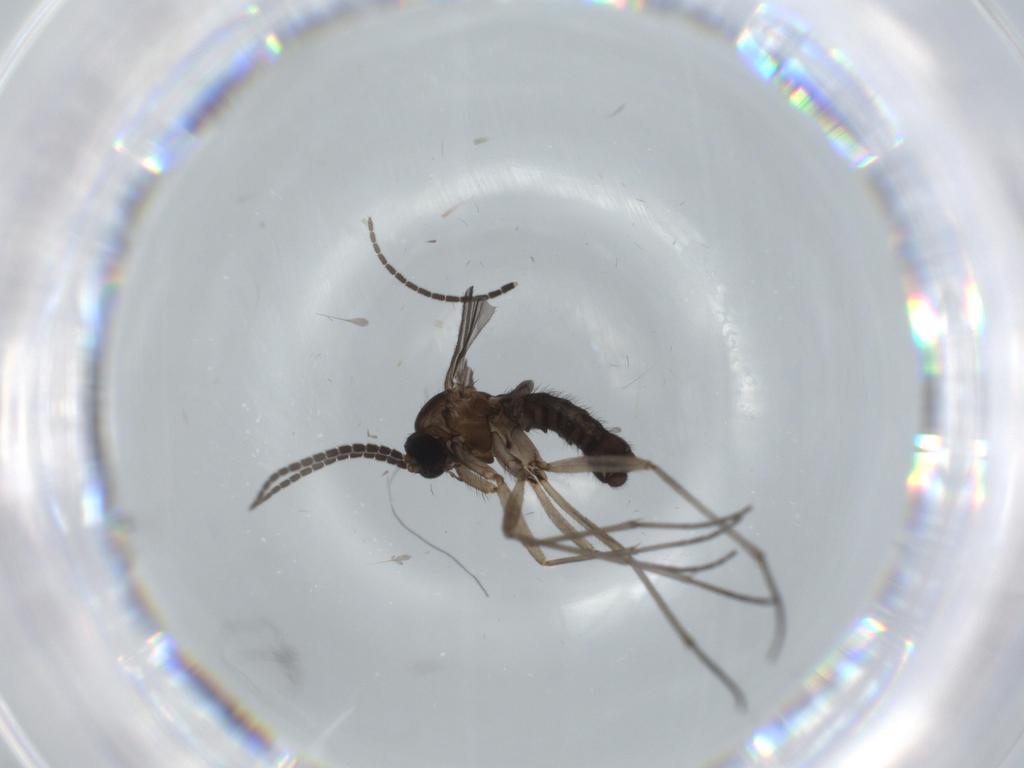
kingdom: Animalia
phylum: Arthropoda
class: Insecta
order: Diptera
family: Sciaridae
